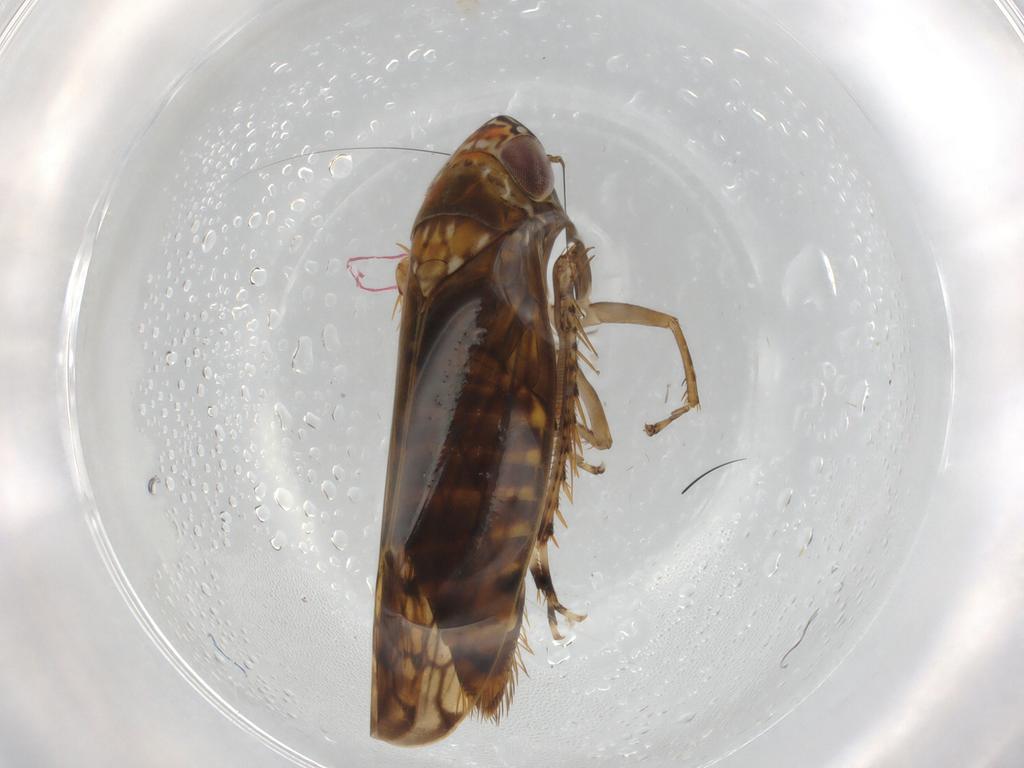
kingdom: Animalia
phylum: Arthropoda
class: Insecta
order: Hemiptera
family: Cicadellidae
